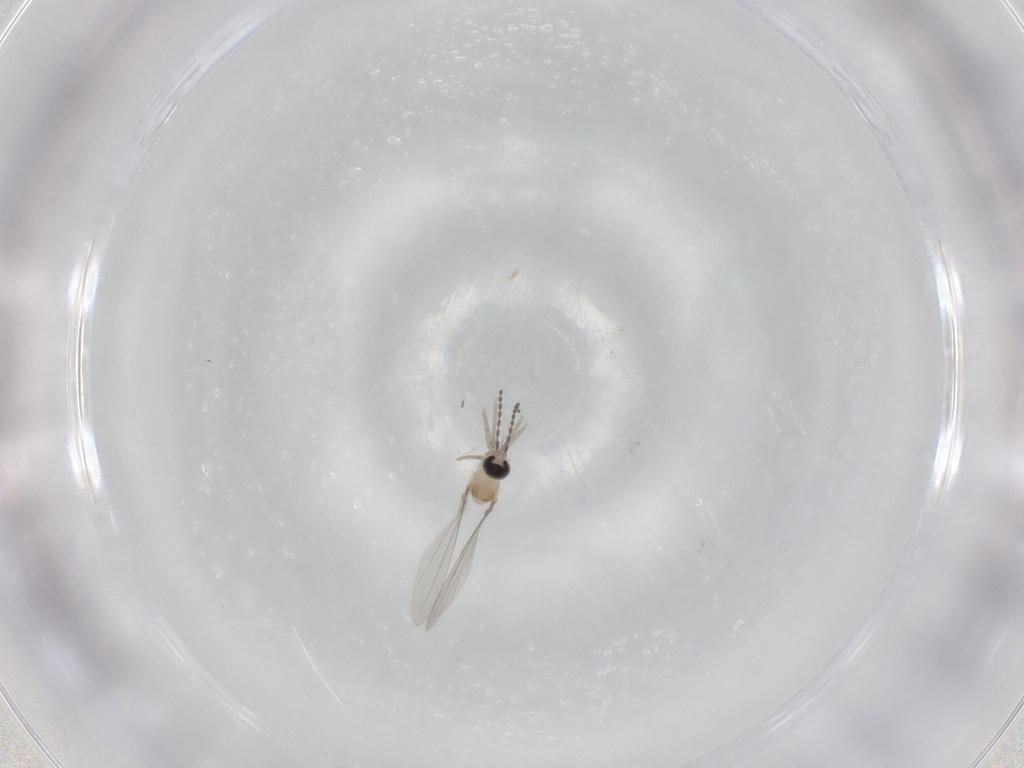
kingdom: Animalia
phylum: Arthropoda
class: Insecta
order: Diptera
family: Cecidomyiidae
